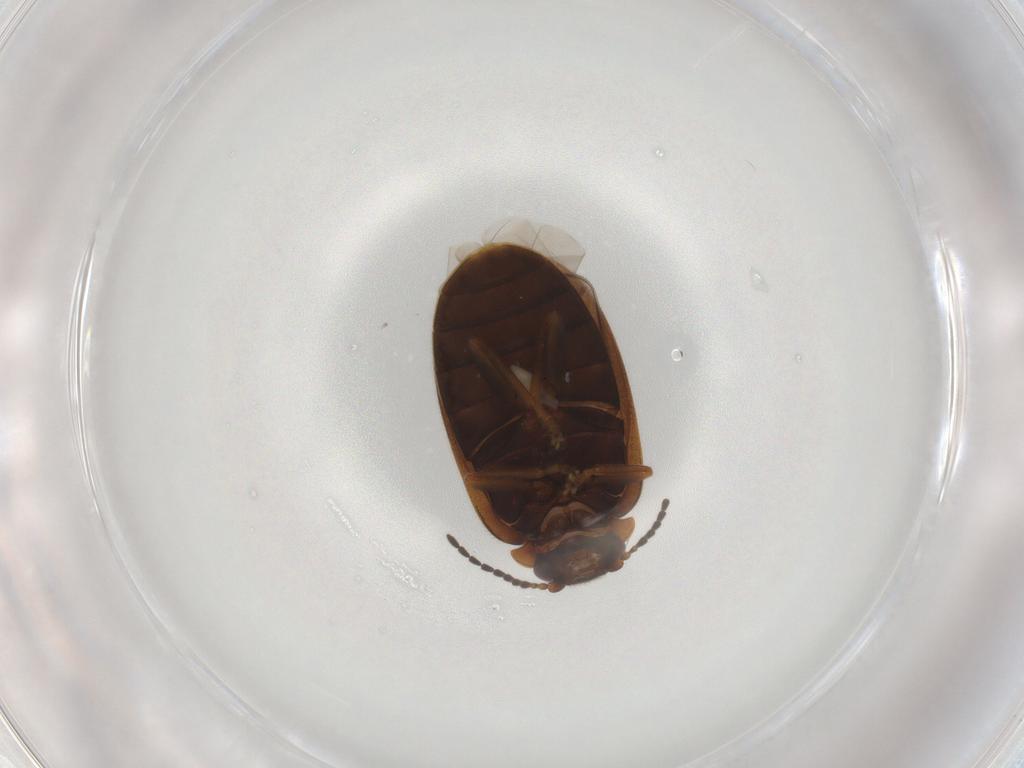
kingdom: Animalia
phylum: Arthropoda
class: Insecta
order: Coleoptera
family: Scirtidae
